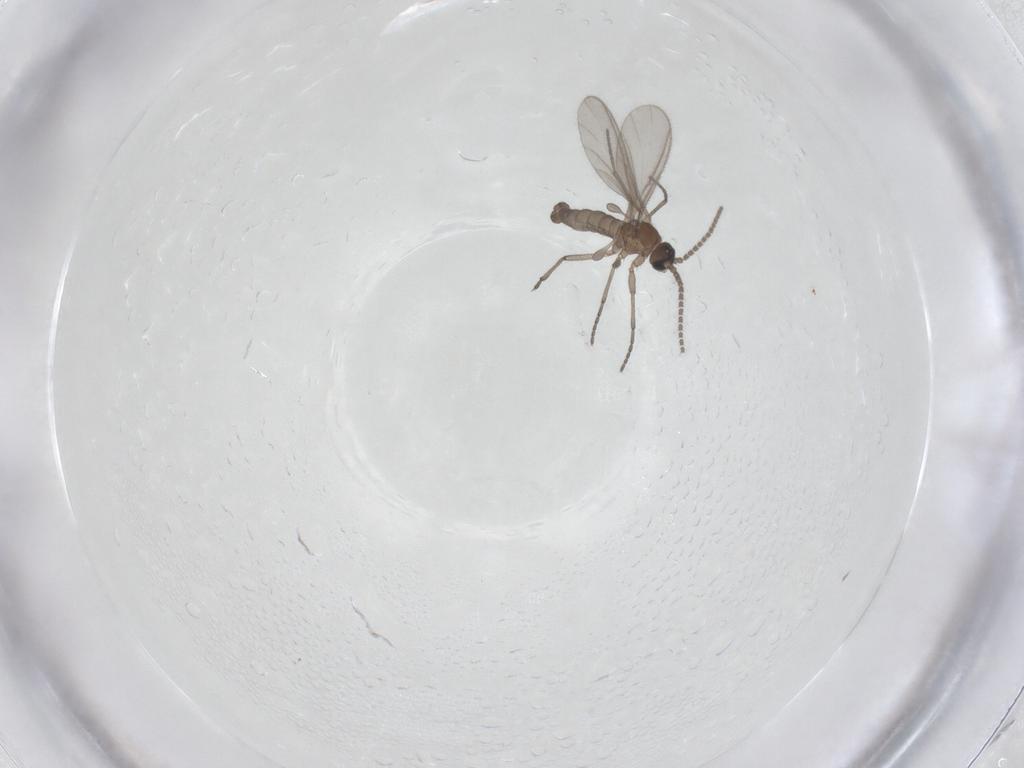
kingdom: Animalia
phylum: Arthropoda
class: Insecta
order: Diptera
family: Sciaridae
